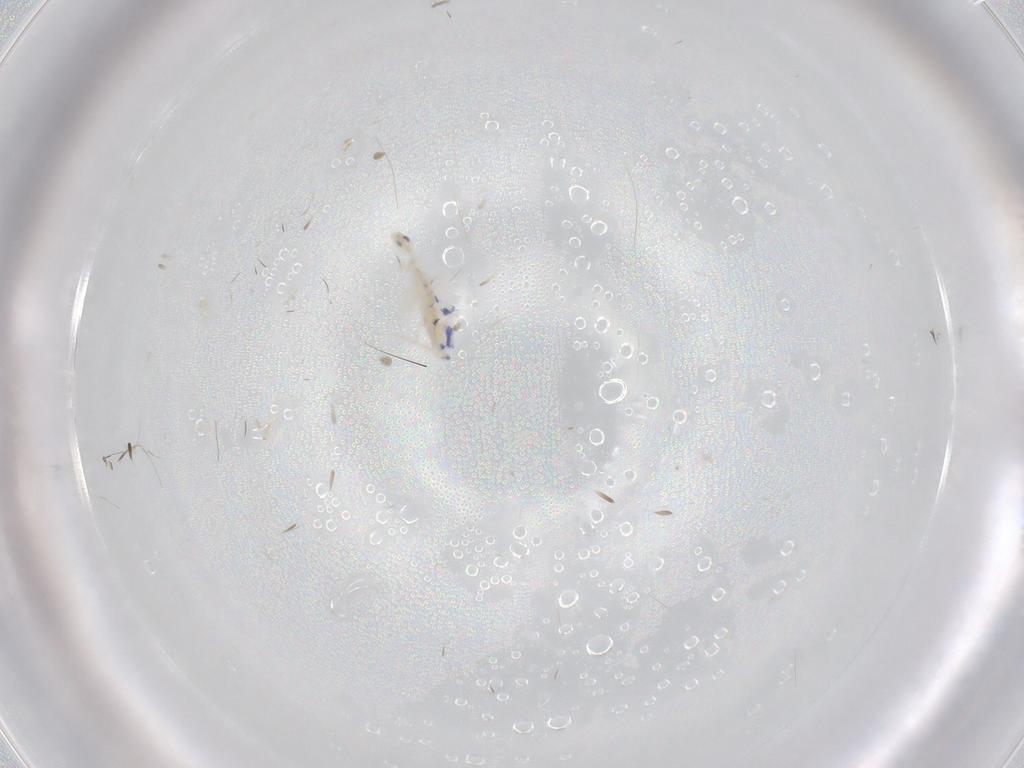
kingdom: Animalia
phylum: Arthropoda
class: Collembola
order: Entomobryomorpha
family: Entomobryidae
